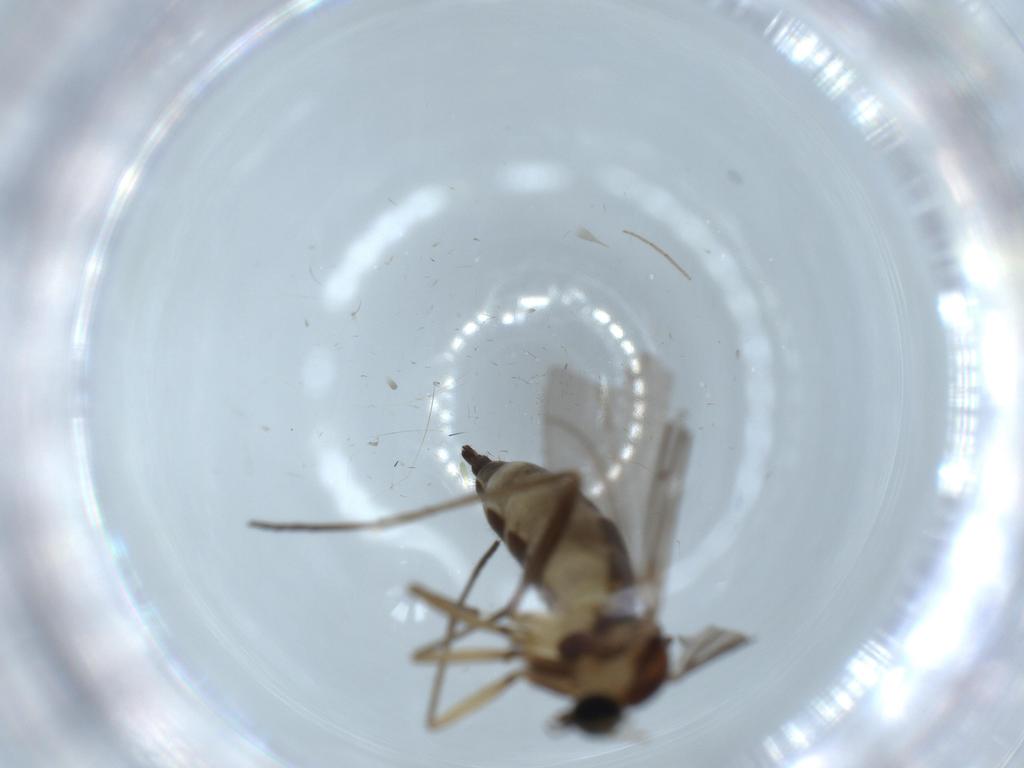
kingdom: Animalia
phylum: Arthropoda
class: Insecta
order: Diptera
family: Sciaridae
